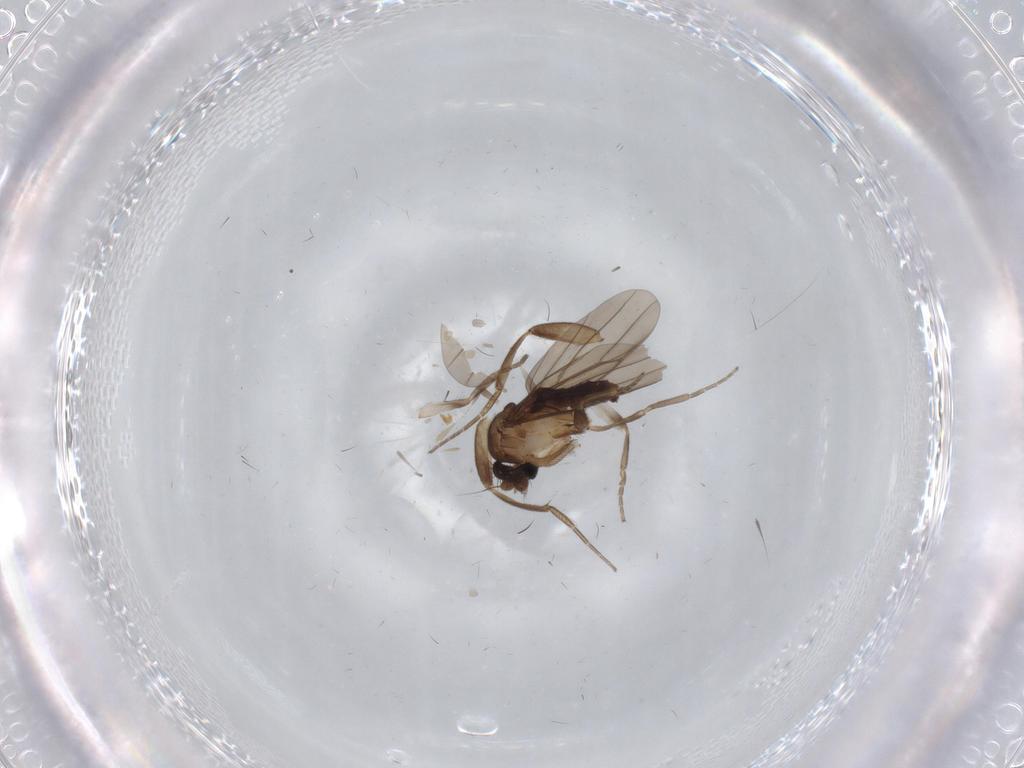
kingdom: Animalia
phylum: Arthropoda
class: Insecta
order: Diptera
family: Chironomidae
